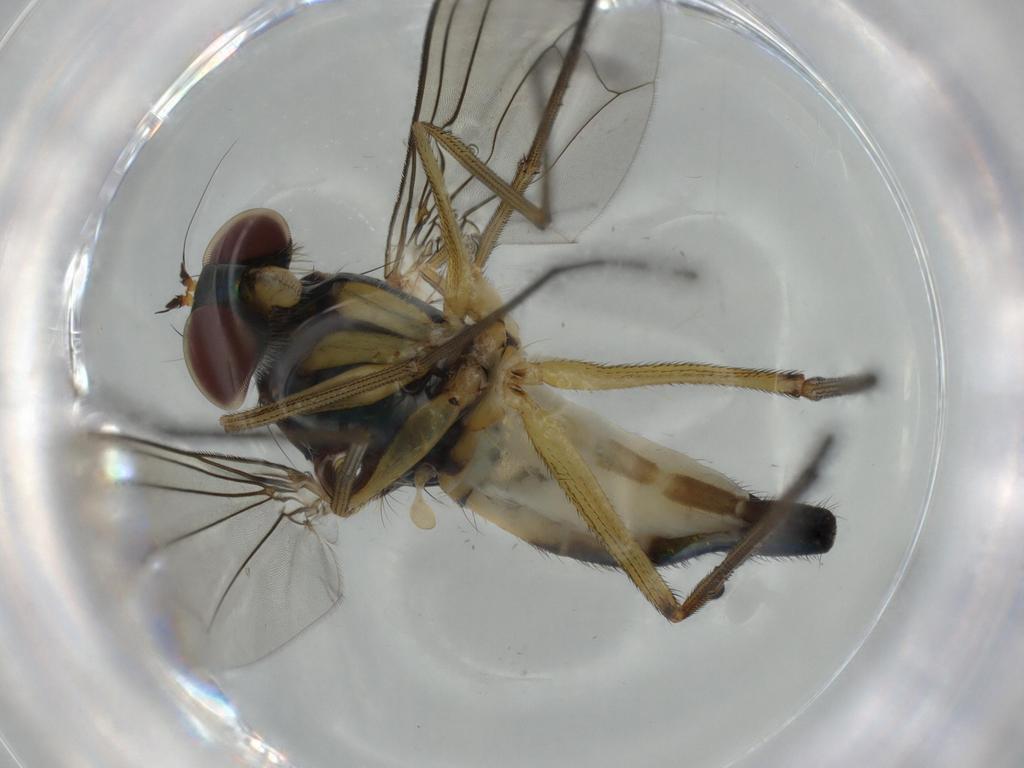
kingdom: Animalia
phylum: Arthropoda
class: Insecta
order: Diptera
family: Dolichopodidae
